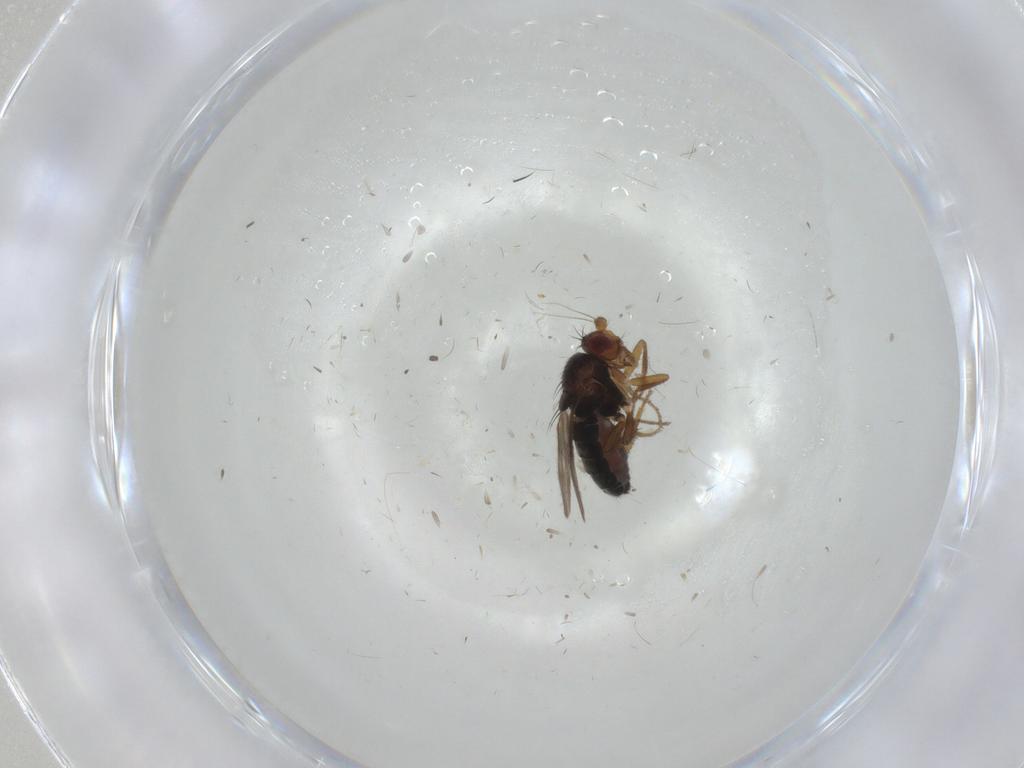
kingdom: Animalia
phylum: Arthropoda
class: Insecta
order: Diptera
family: Sphaeroceridae
